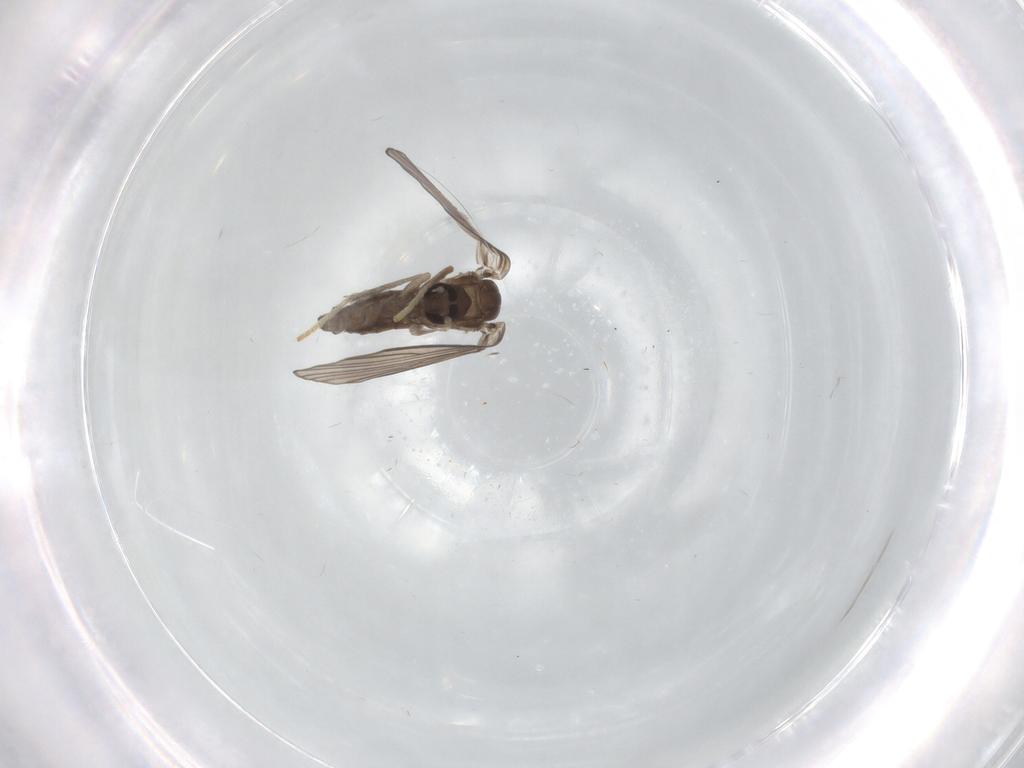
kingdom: Animalia
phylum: Arthropoda
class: Insecta
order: Diptera
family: Psychodidae
